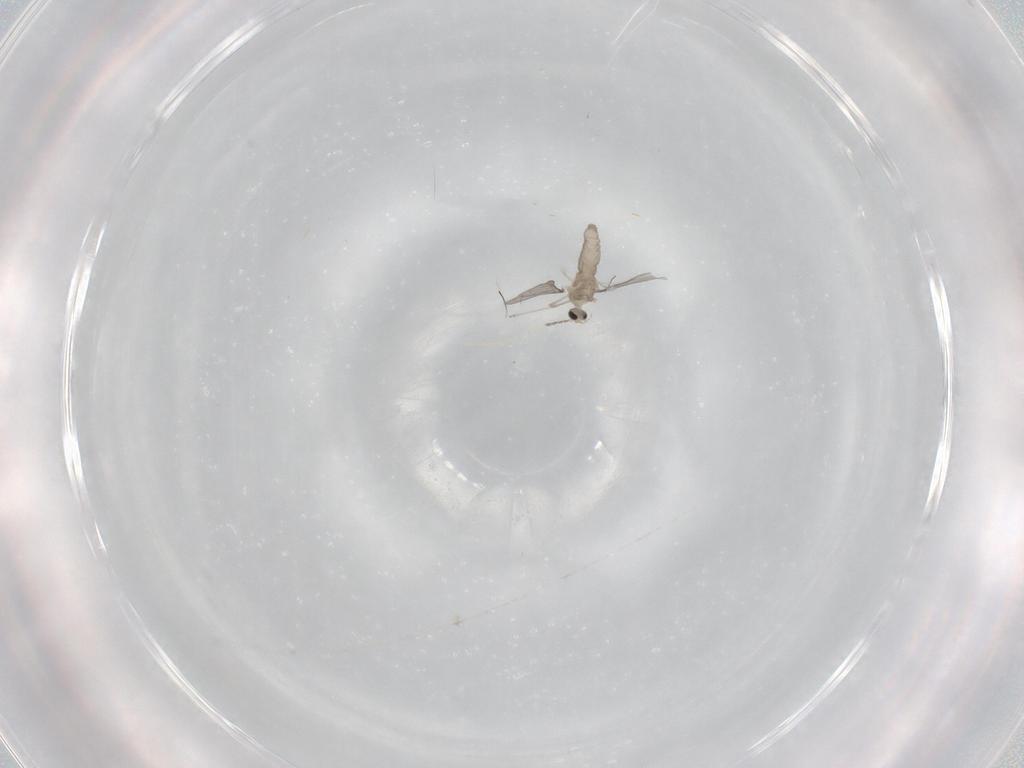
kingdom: Animalia
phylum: Arthropoda
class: Insecta
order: Diptera
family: Cecidomyiidae
